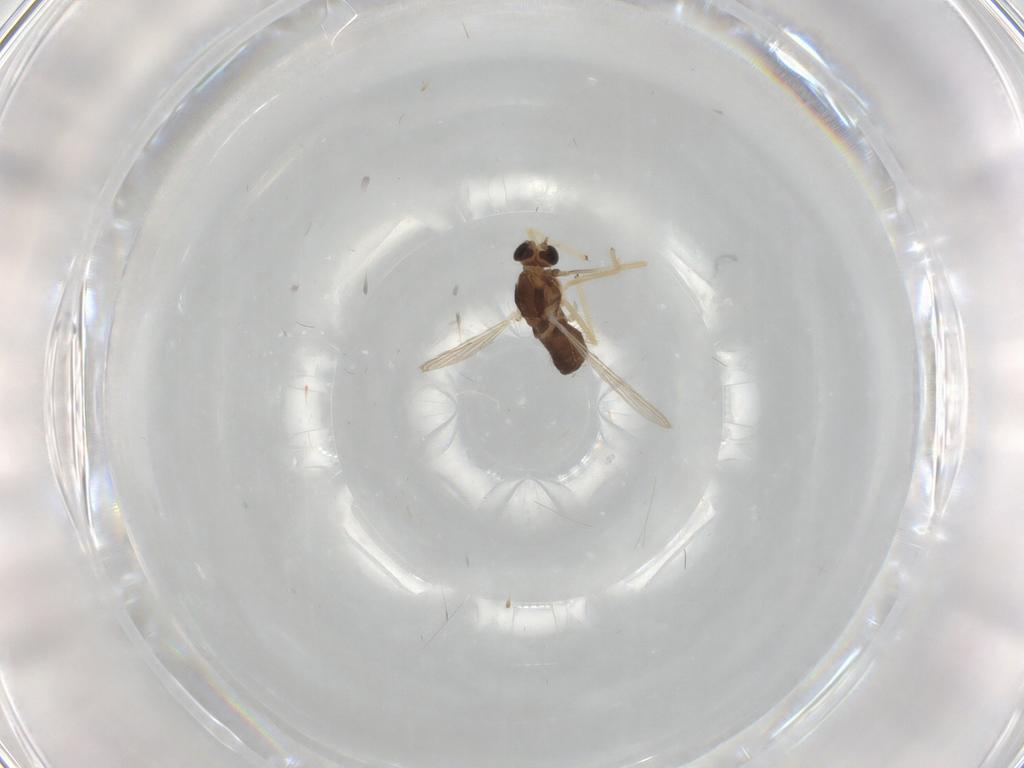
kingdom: Animalia
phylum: Arthropoda
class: Insecta
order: Diptera
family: Chironomidae
